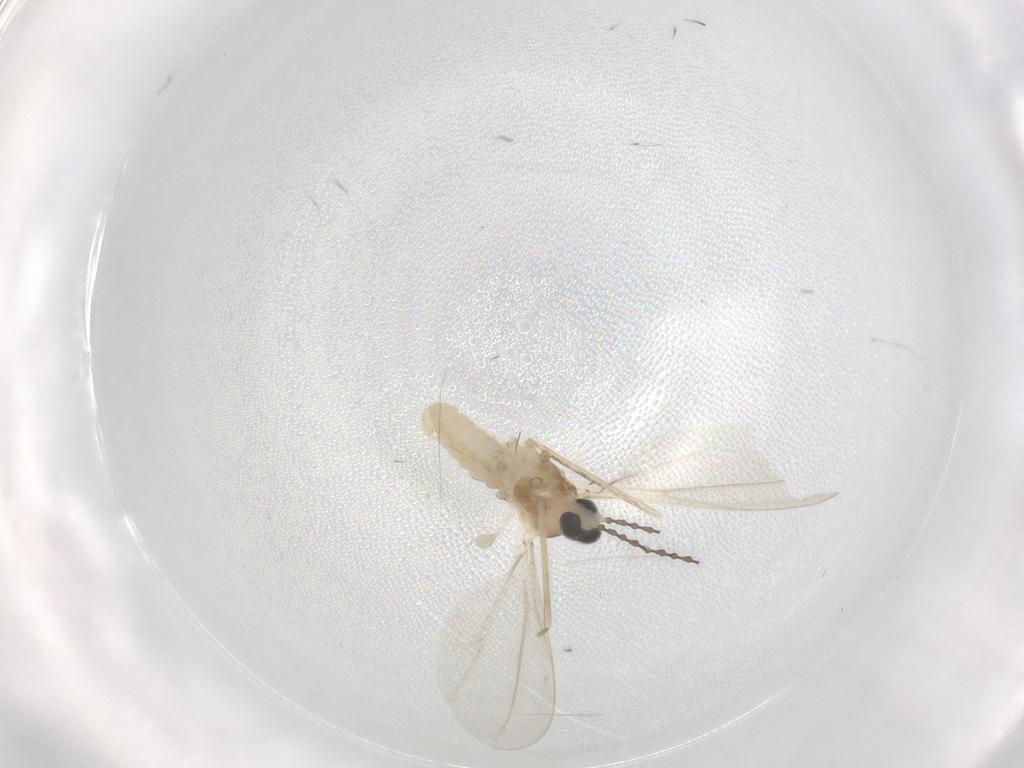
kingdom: Animalia
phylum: Arthropoda
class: Insecta
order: Diptera
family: Cecidomyiidae
